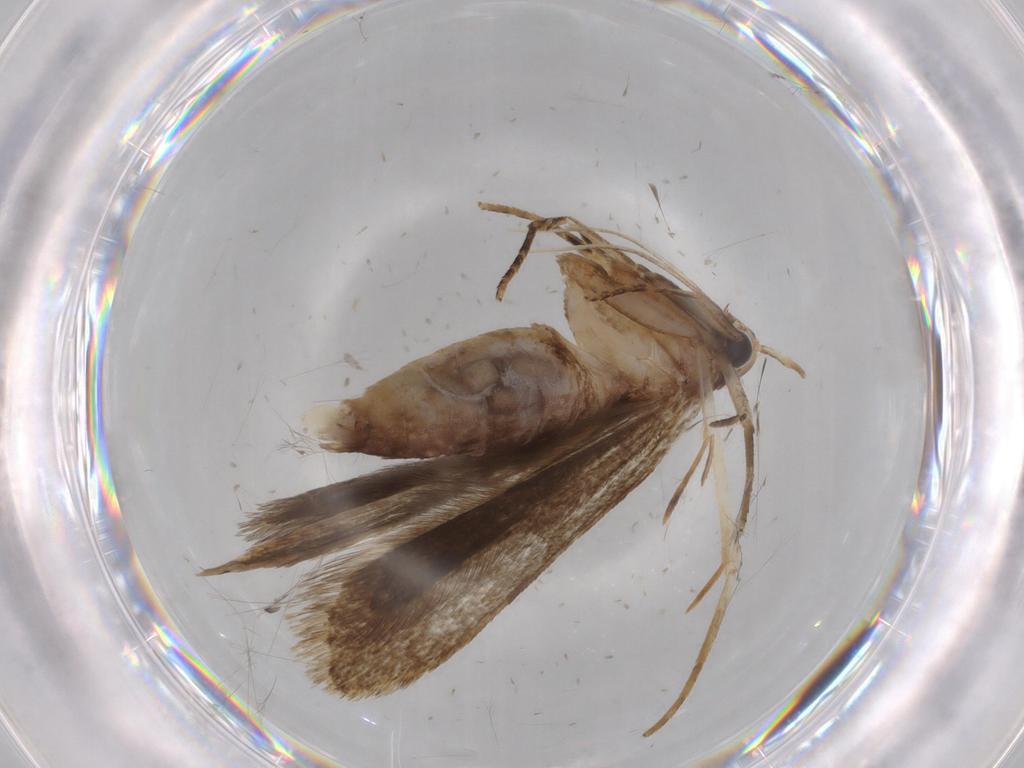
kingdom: Animalia
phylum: Arthropoda
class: Insecta
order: Lepidoptera
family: Gelechiidae
